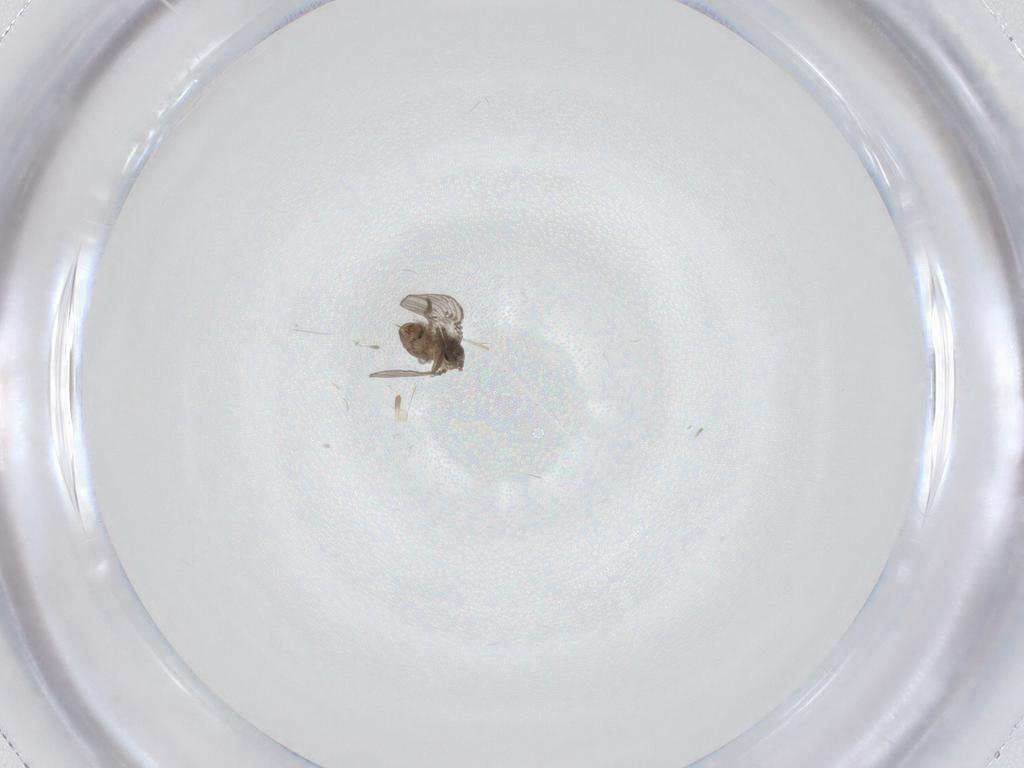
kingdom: Animalia
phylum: Arthropoda
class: Insecta
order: Diptera
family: Psychodidae
